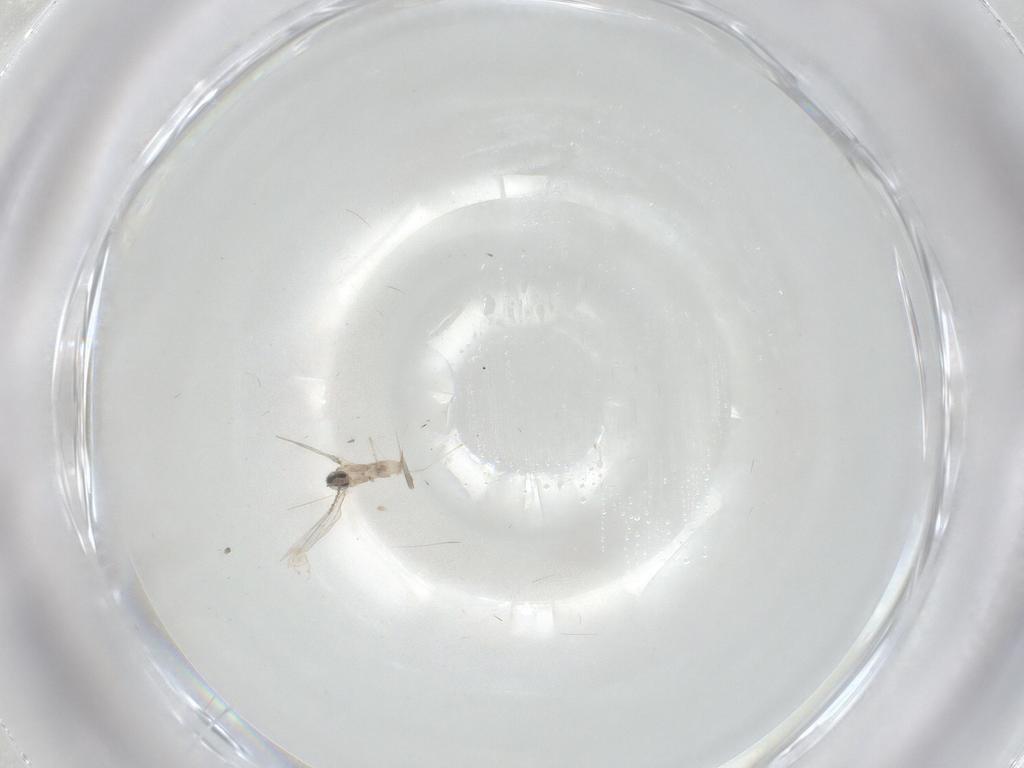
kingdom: Animalia
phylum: Arthropoda
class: Insecta
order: Diptera
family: Cecidomyiidae
